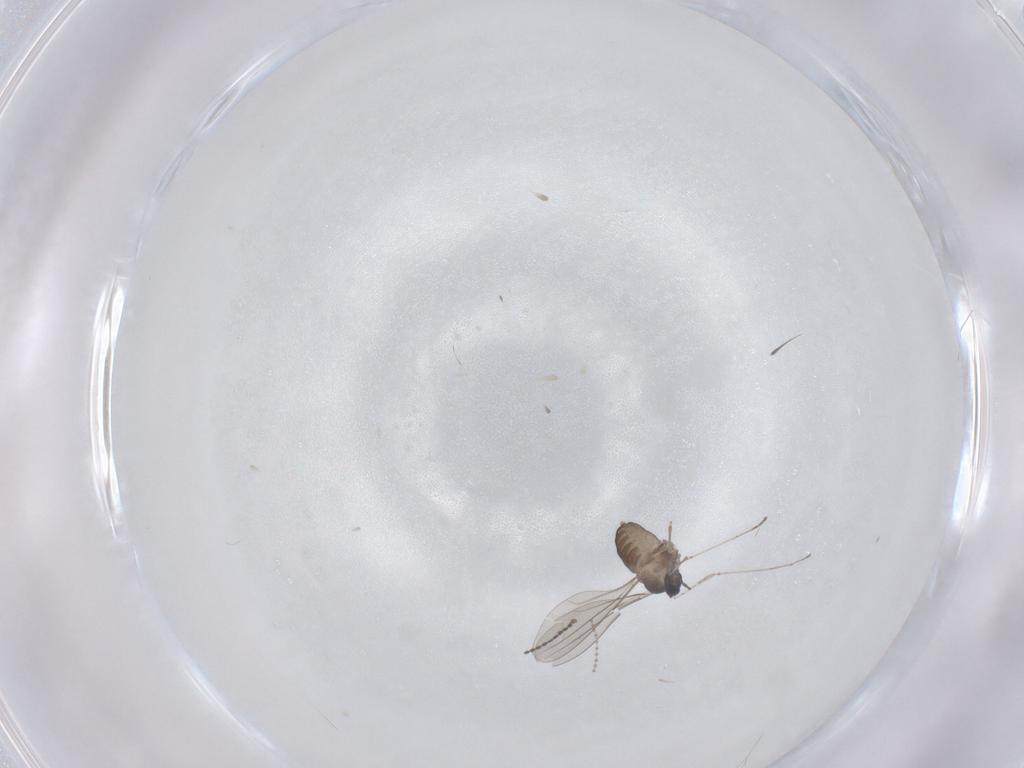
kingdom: Animalia
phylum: Arthropoda
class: Insecta
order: Diptera
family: Cecidomyiidae
